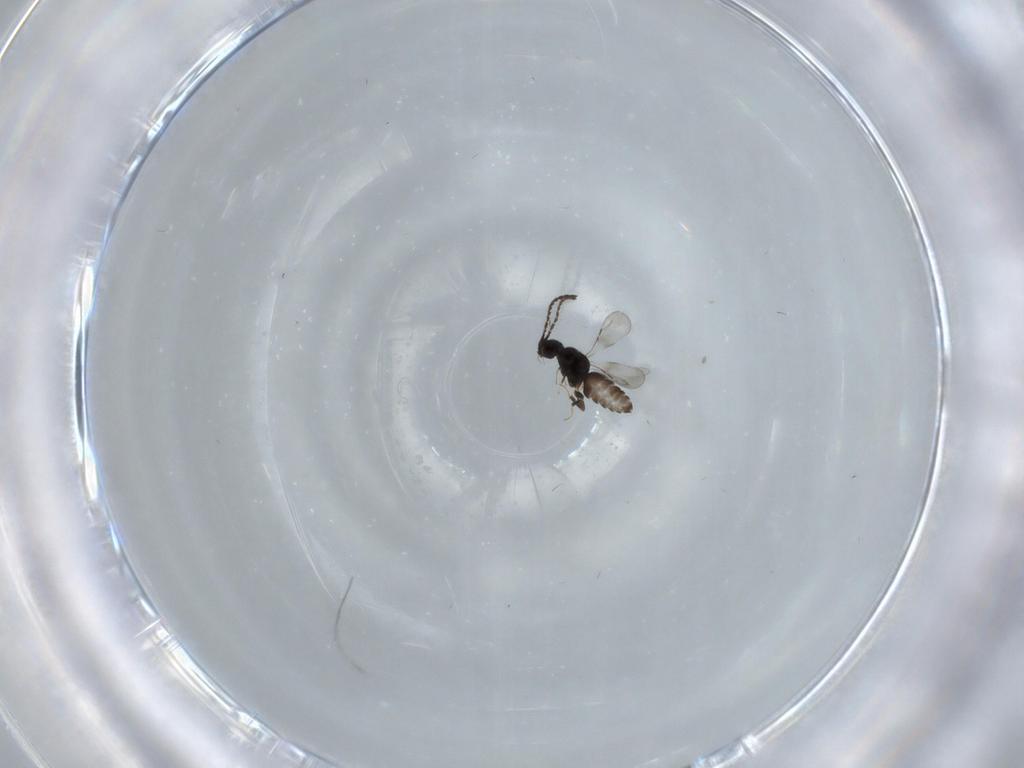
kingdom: Animalia
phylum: Arthropoda
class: Insecta
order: Hymenoptera
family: Eurytomidae
